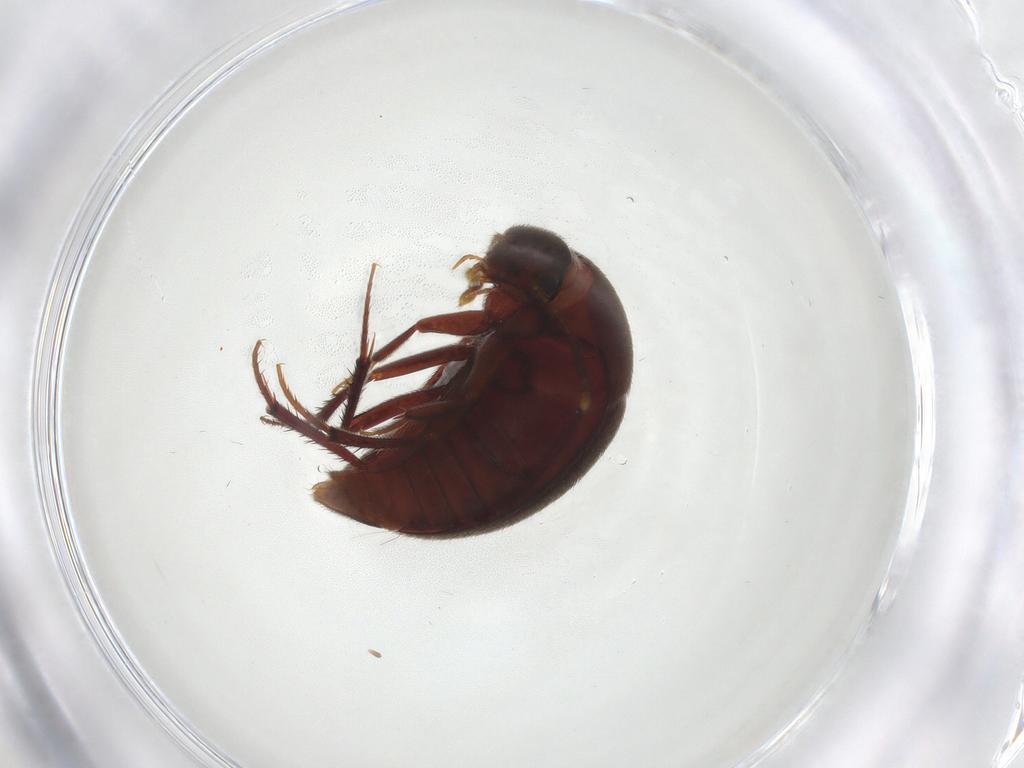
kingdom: Animalia
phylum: Arthropoda
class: Insecta
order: Coleoptera
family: Leiodidae
